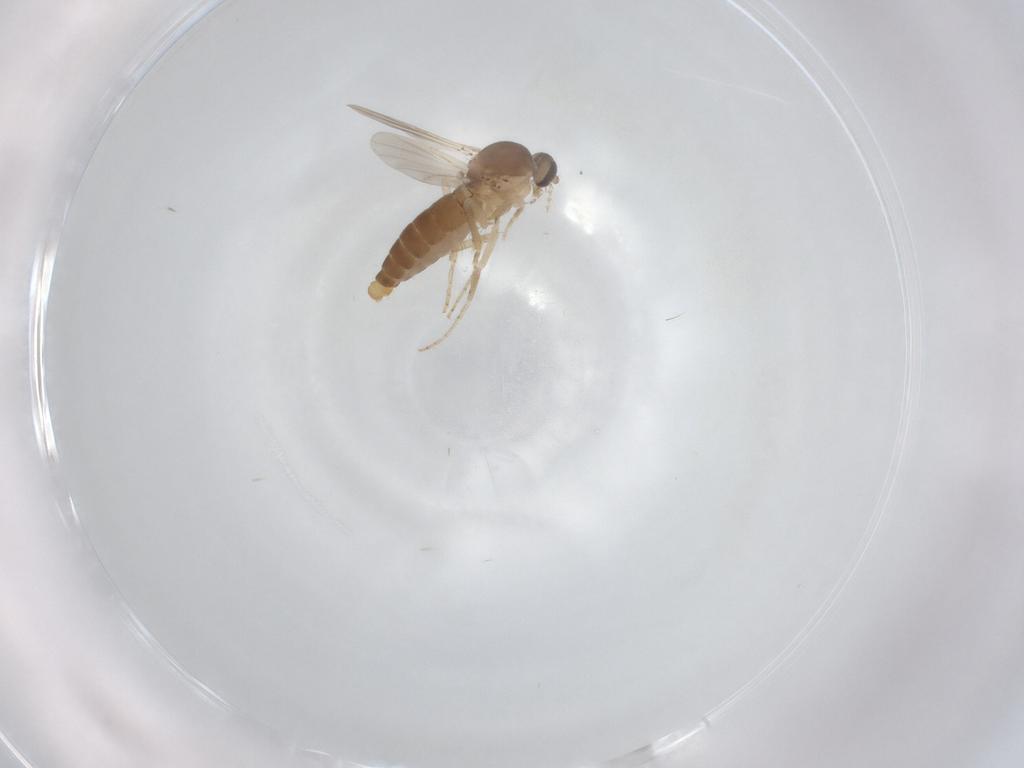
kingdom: Animalia
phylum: Arthropoda
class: Insecta
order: Diptera
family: Ceratopogonidae
